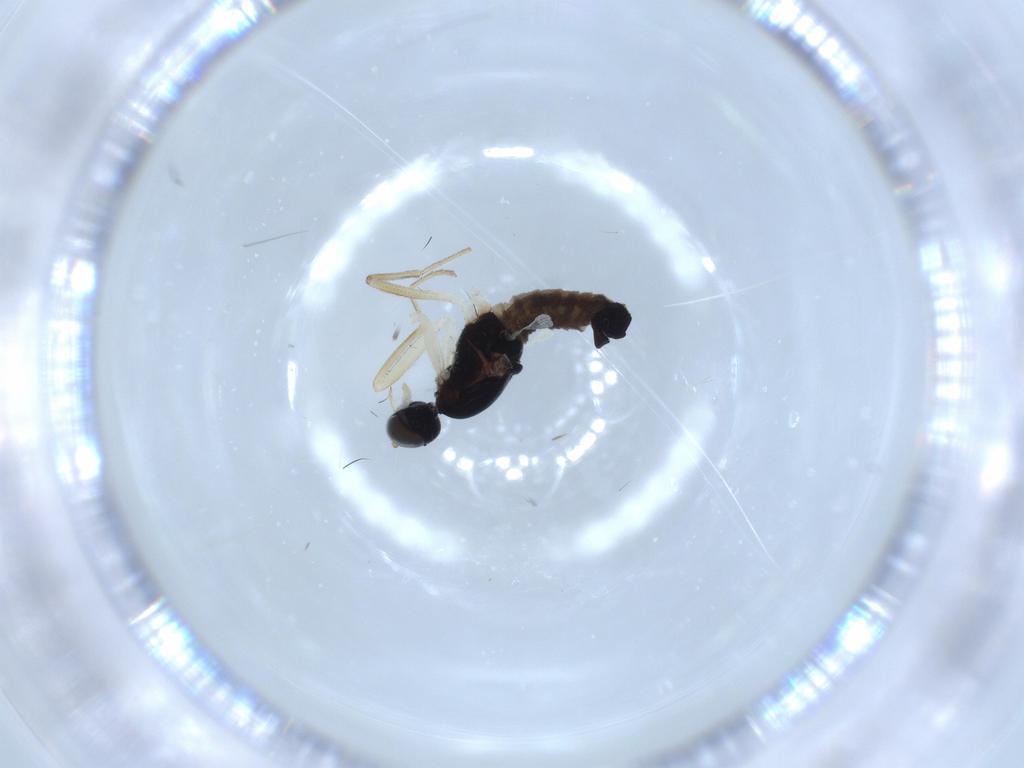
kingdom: Animalia
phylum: Arthropoda
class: Insecta
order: Diptera
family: Empididae
